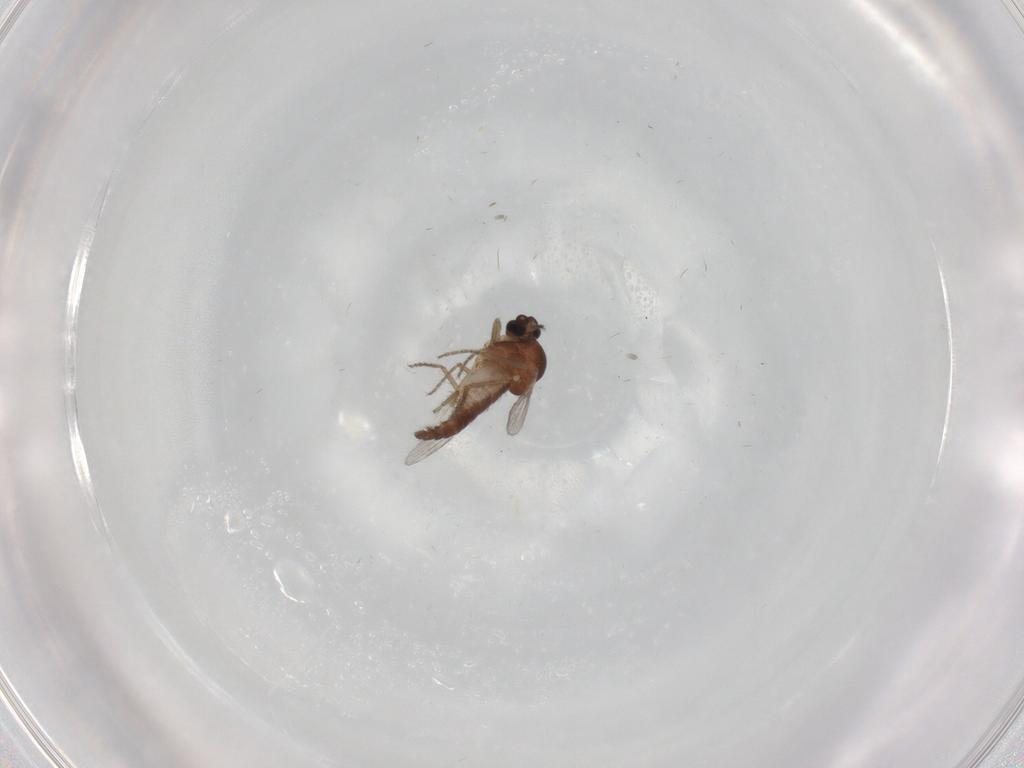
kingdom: Animalia
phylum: Arthropoda
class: Insecta
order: Diptera
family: Ceratopogonidae
